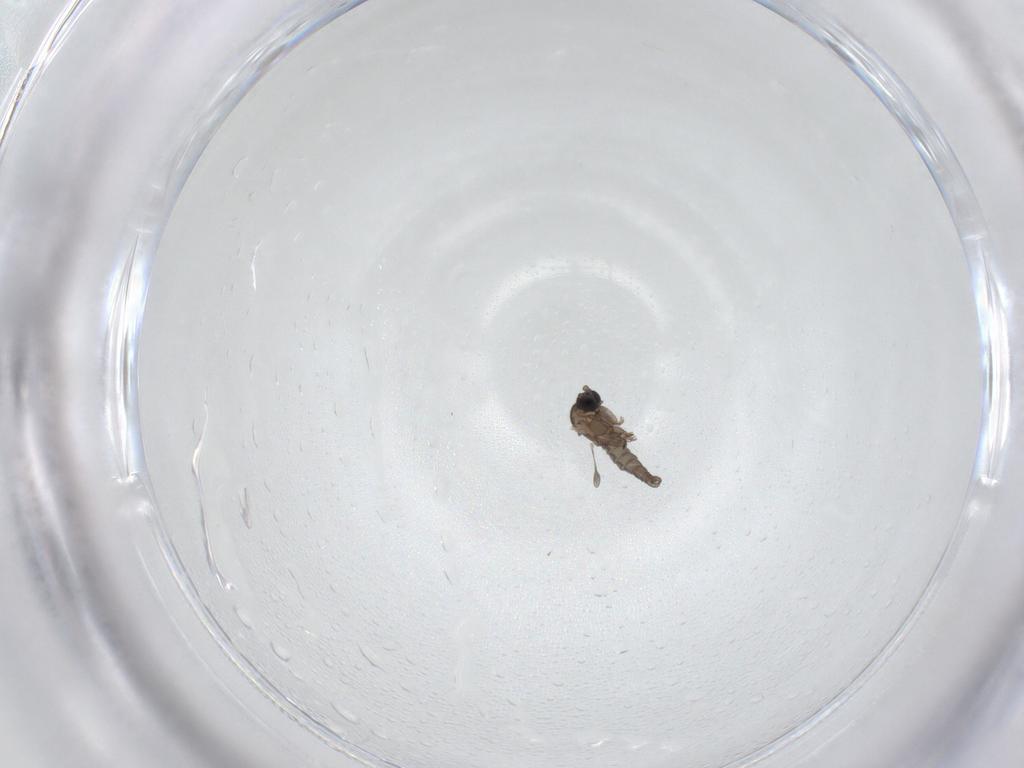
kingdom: Animalia
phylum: Arthropoda
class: Insecta
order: Diptera
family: Sciaridae
